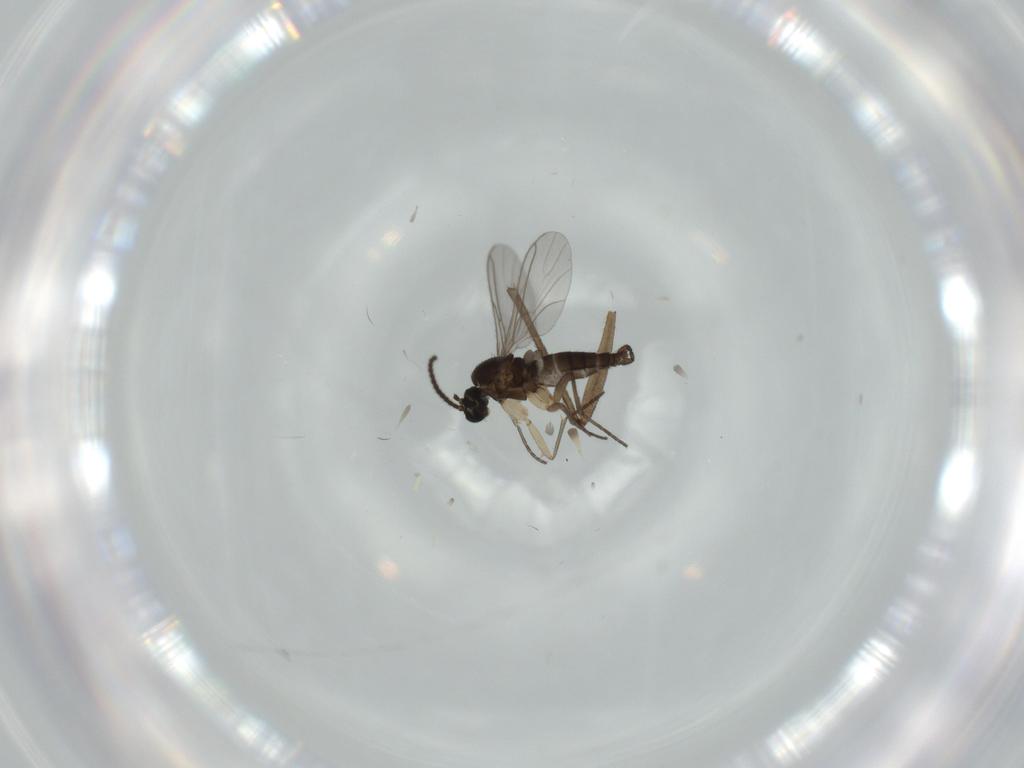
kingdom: Animalia
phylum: Arthropoda
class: Insecta
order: Diptera
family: Sciaridae
